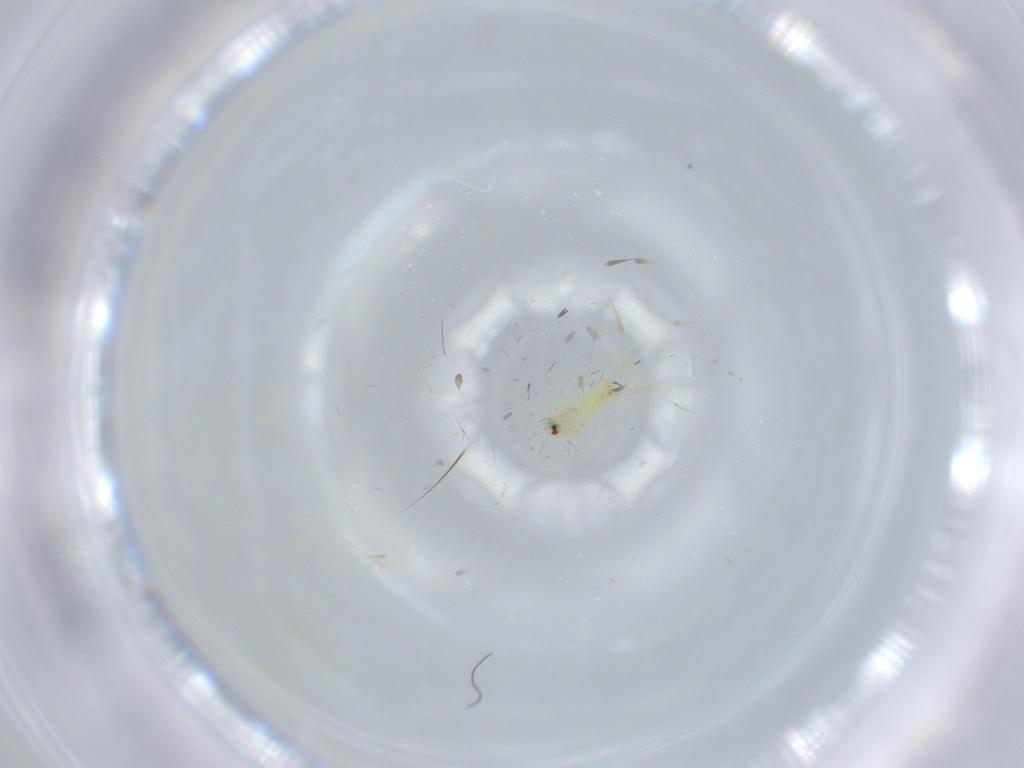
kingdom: Animalia
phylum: Arthropoda
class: Insecta
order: Hemiptera
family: Aleyrodidae
